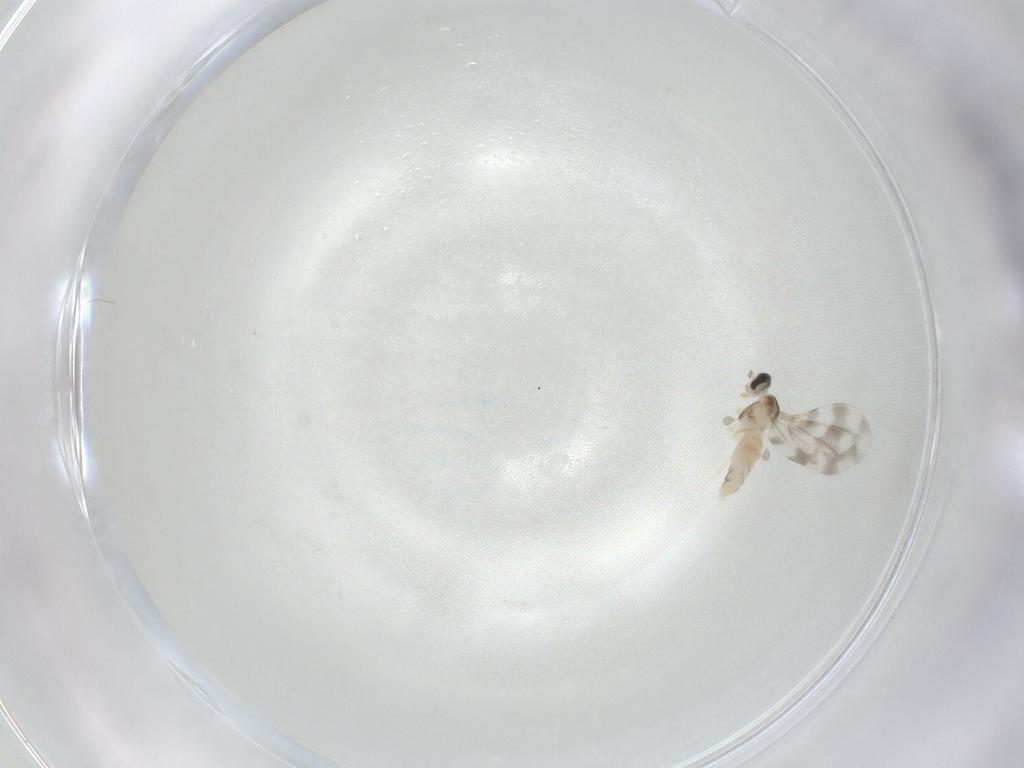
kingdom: Animalia
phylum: Arthropoda
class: Insecta
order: Diptera
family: Cecidomyiidae
